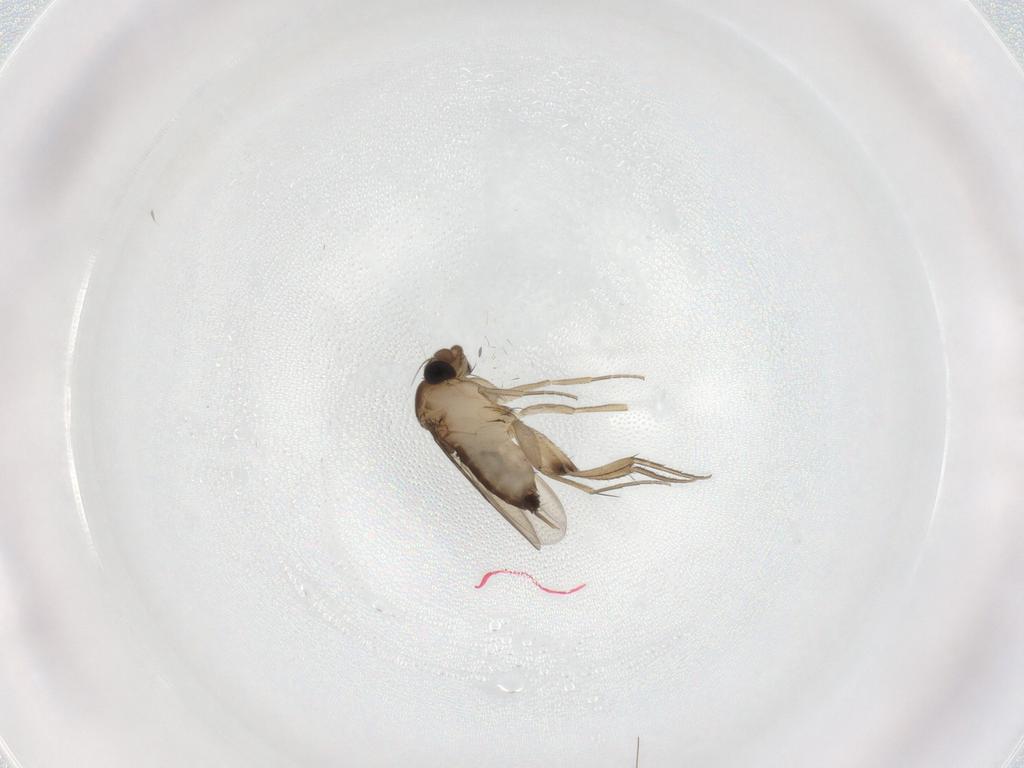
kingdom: Animalia
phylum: Arthropoda
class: Insecta
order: Diptera
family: Phoridae
